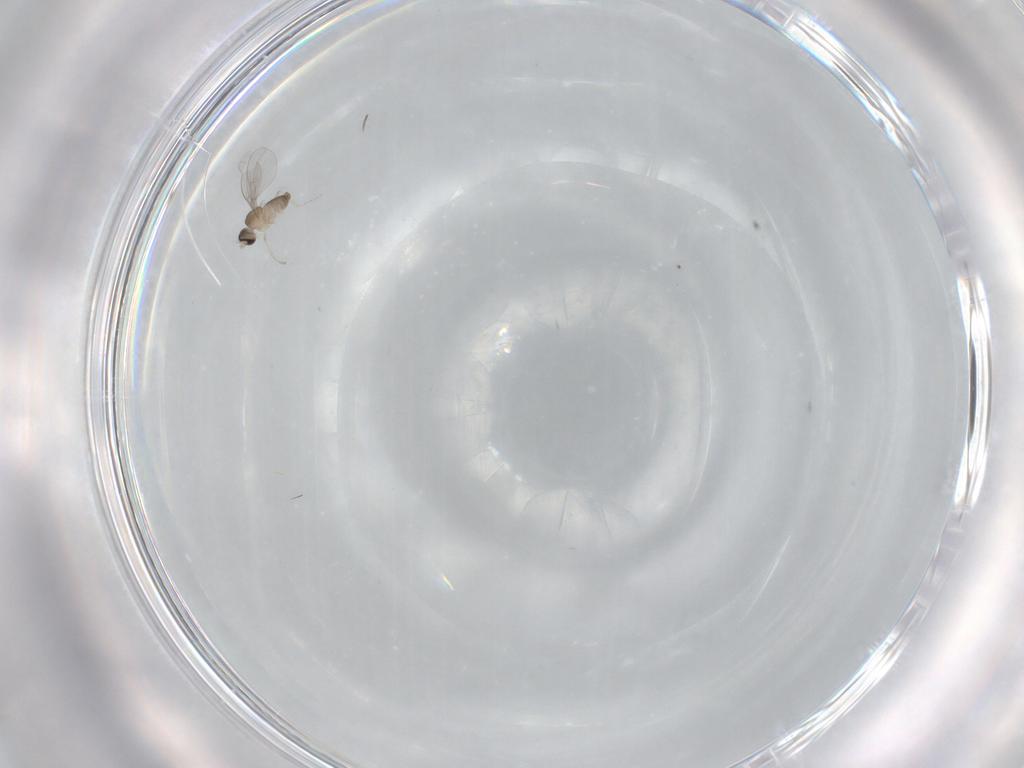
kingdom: Animalia
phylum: Arthropoda
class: Insecta
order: Diptera
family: Cecidomyiidae
